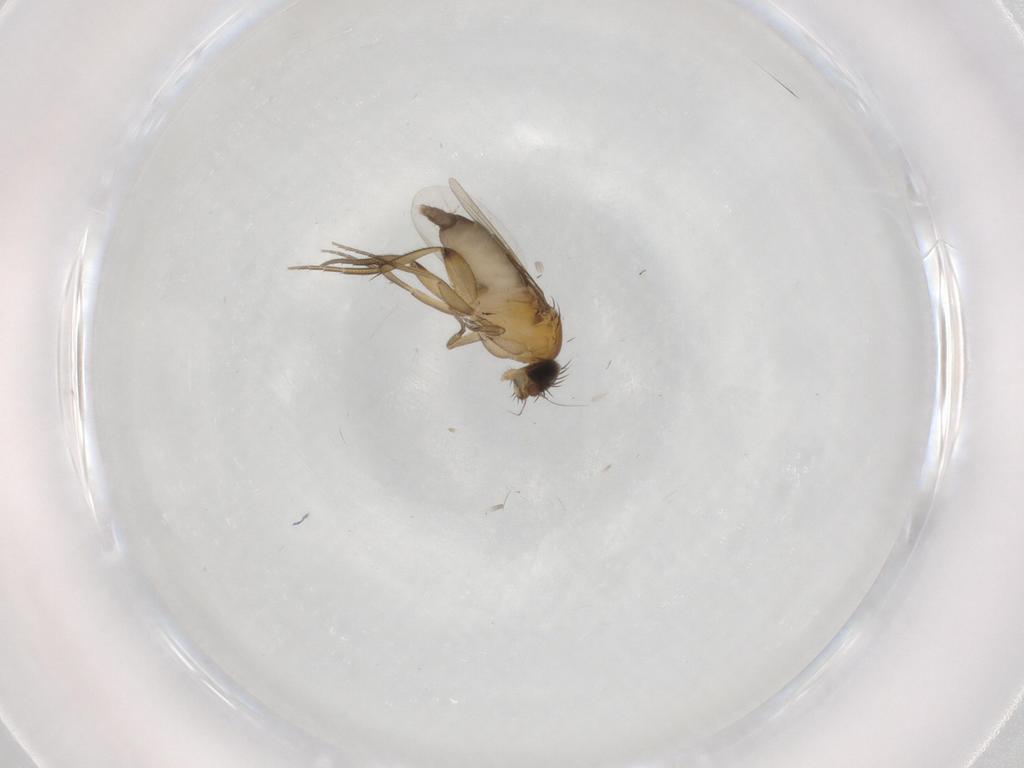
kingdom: Animalia
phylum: Arthropoda
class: Insecta
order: Diptera
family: Phoridae
